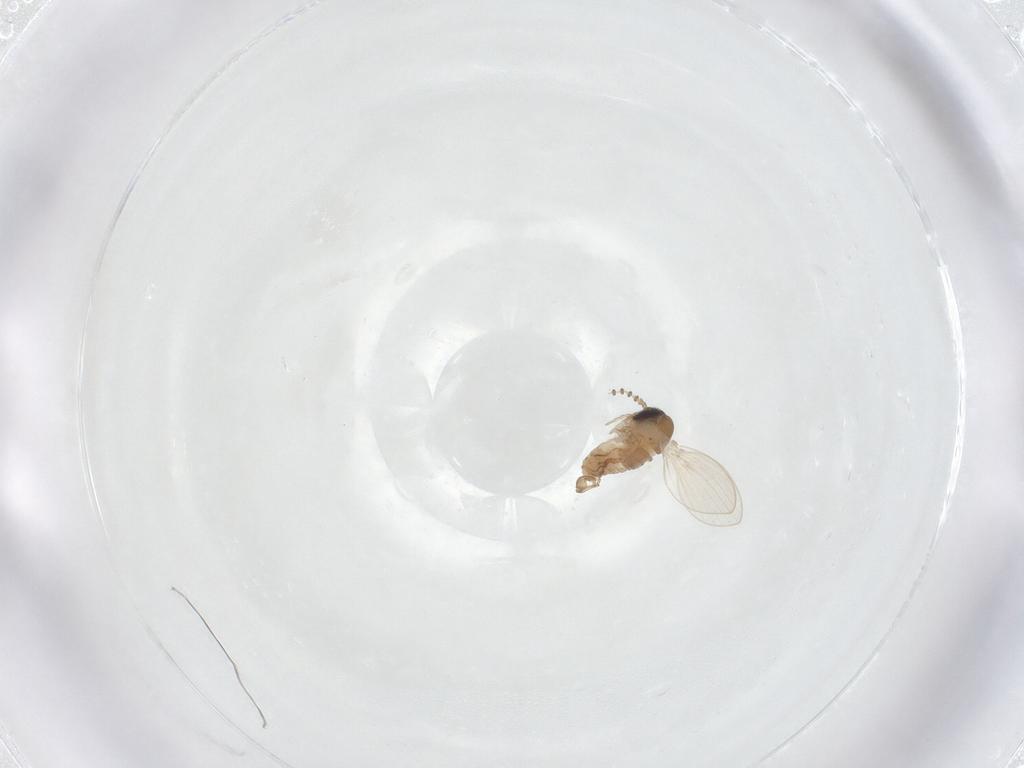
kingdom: Animalia
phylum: Arthropoda
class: Insecta
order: Diptera
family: Psychodidae
